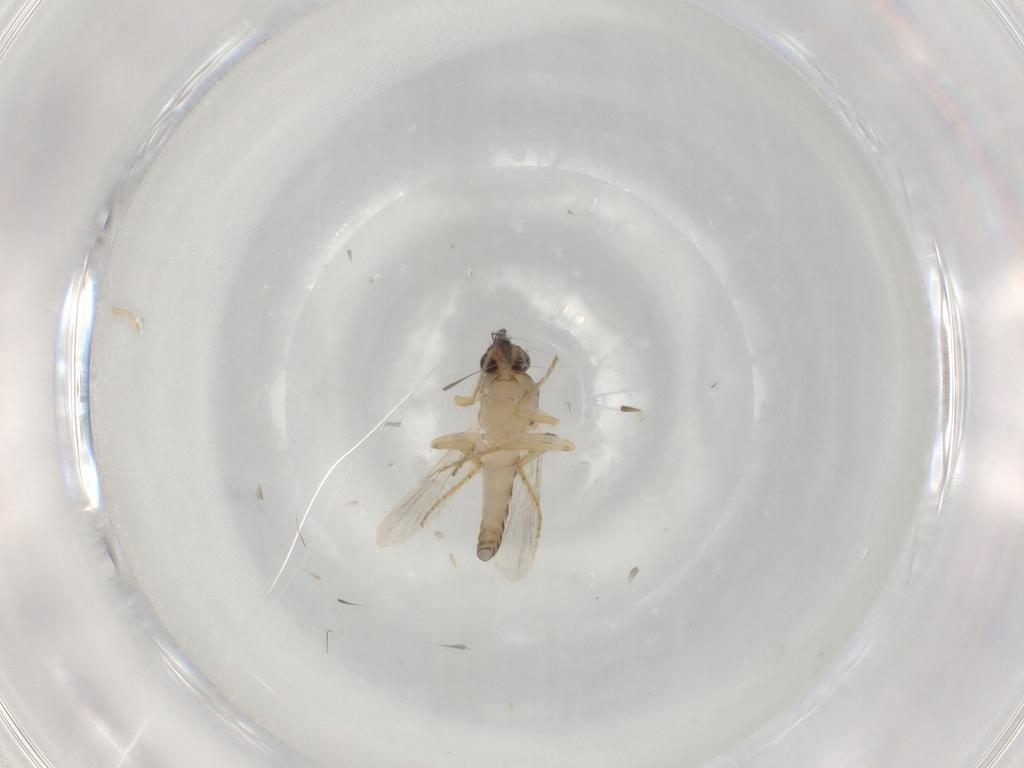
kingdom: Animalia
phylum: Arthropoda
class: Insecta
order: Diptera
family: Ceratopogonidae
